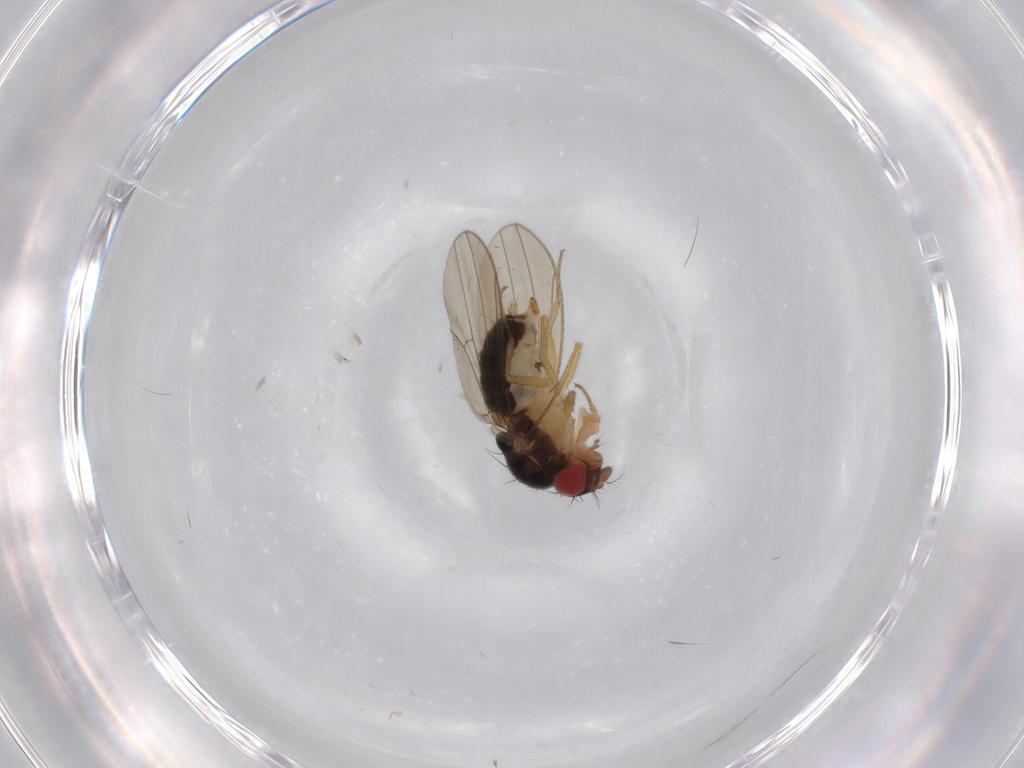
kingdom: Animalia
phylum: Arthropoda
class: Insecta
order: Diptera
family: Drosophilidae
